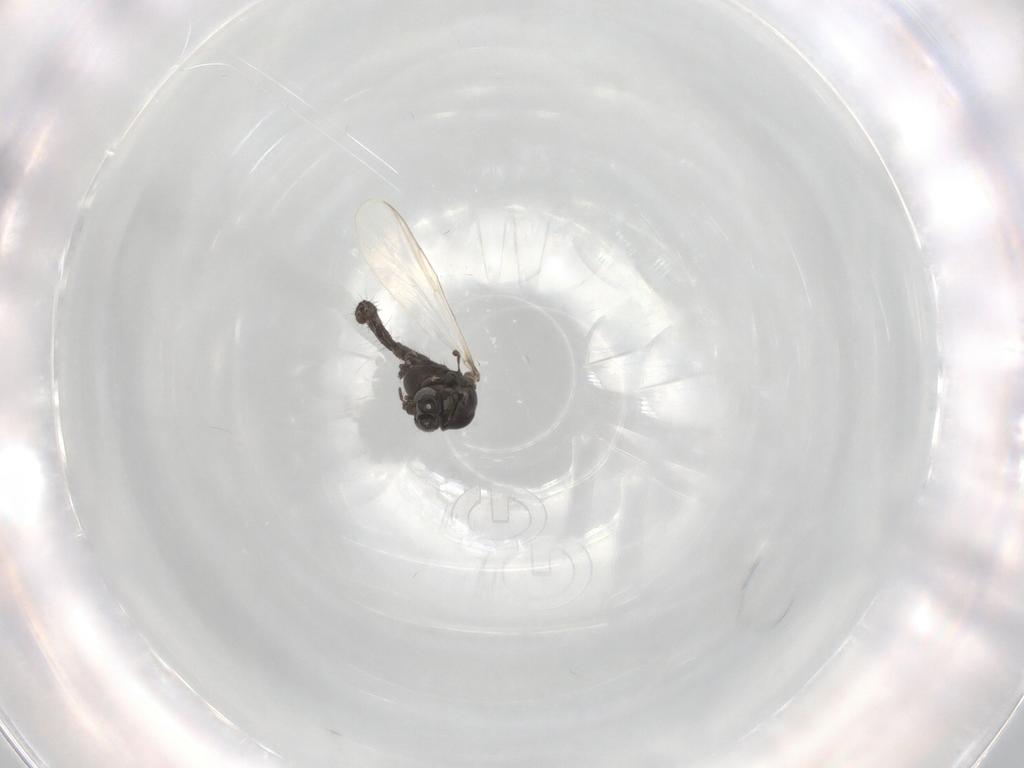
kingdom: Animalia
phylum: Arthropoda
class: Insecta
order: Diptera
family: Chironomidae
